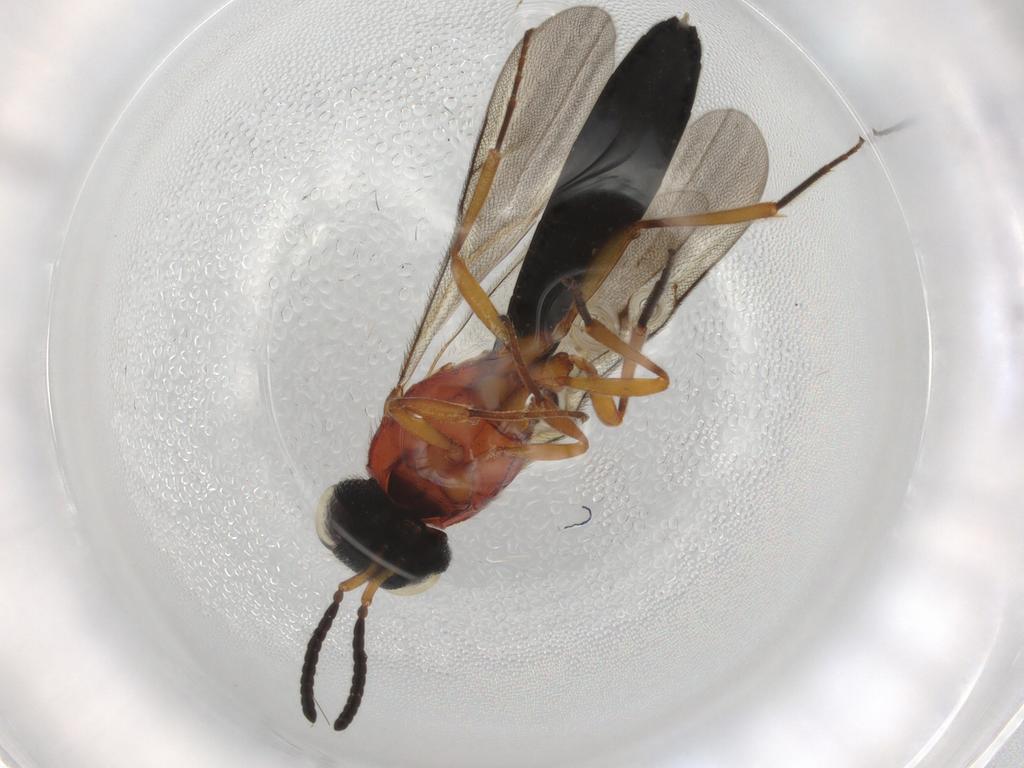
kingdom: Animalia
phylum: Arthropoda
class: Insecta
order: Hymenoptera
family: Scelionidae
